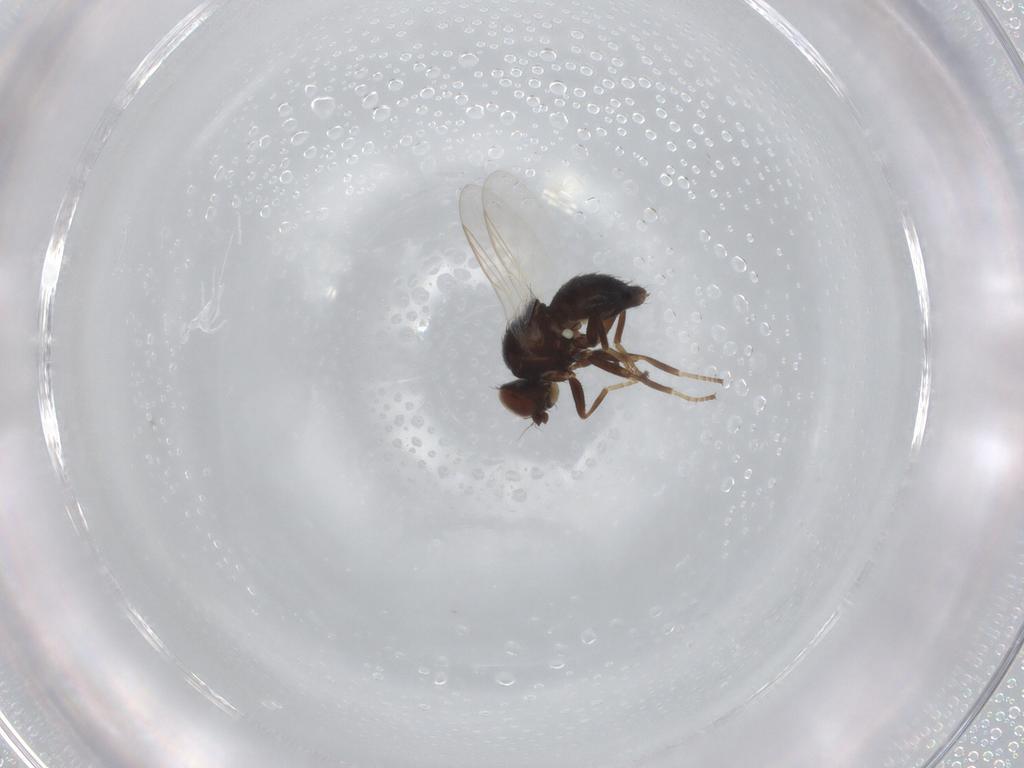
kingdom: Animalia
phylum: Arthropoda
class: Insecta
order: Diptera
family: Agromyzidae
